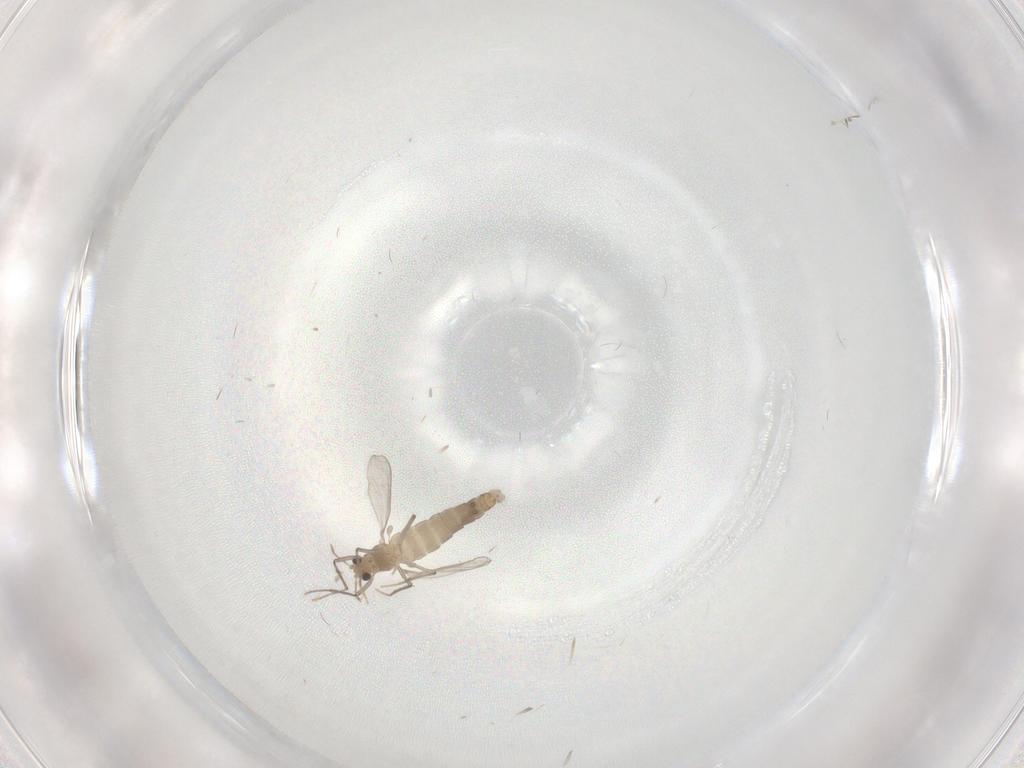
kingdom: Animalia
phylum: Arthropoda
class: Insecta
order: Diptera
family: Chironomidae
